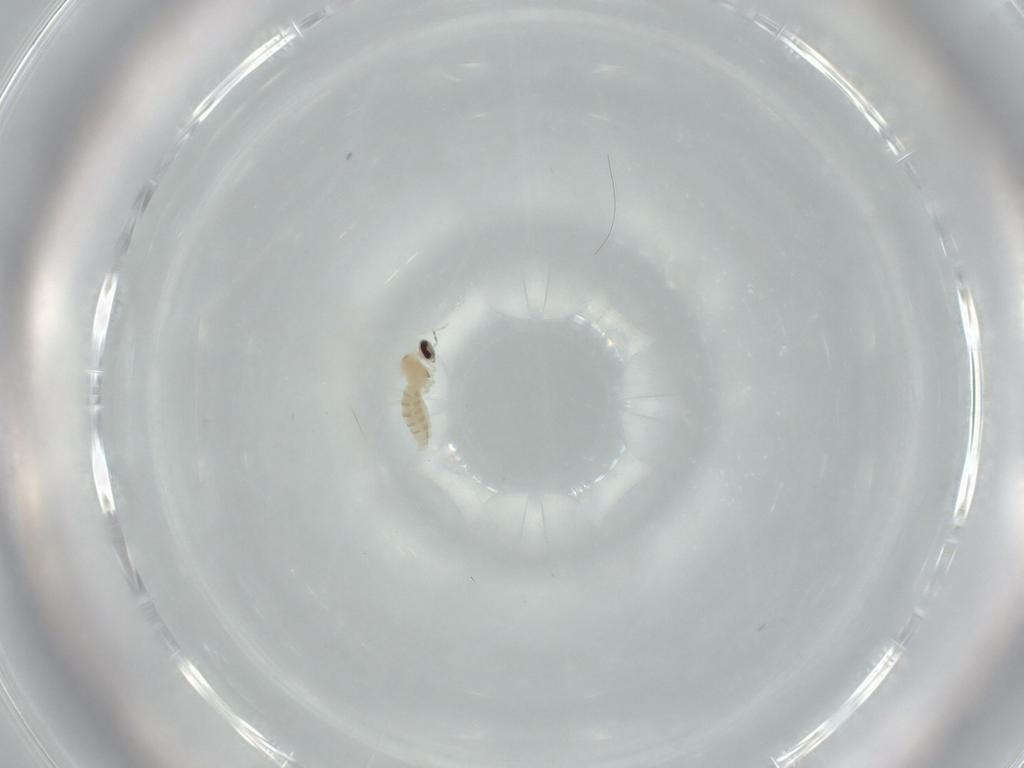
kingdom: Animalia
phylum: Arthropoda
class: Insecta
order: Diptera
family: Cecidomyiidae
